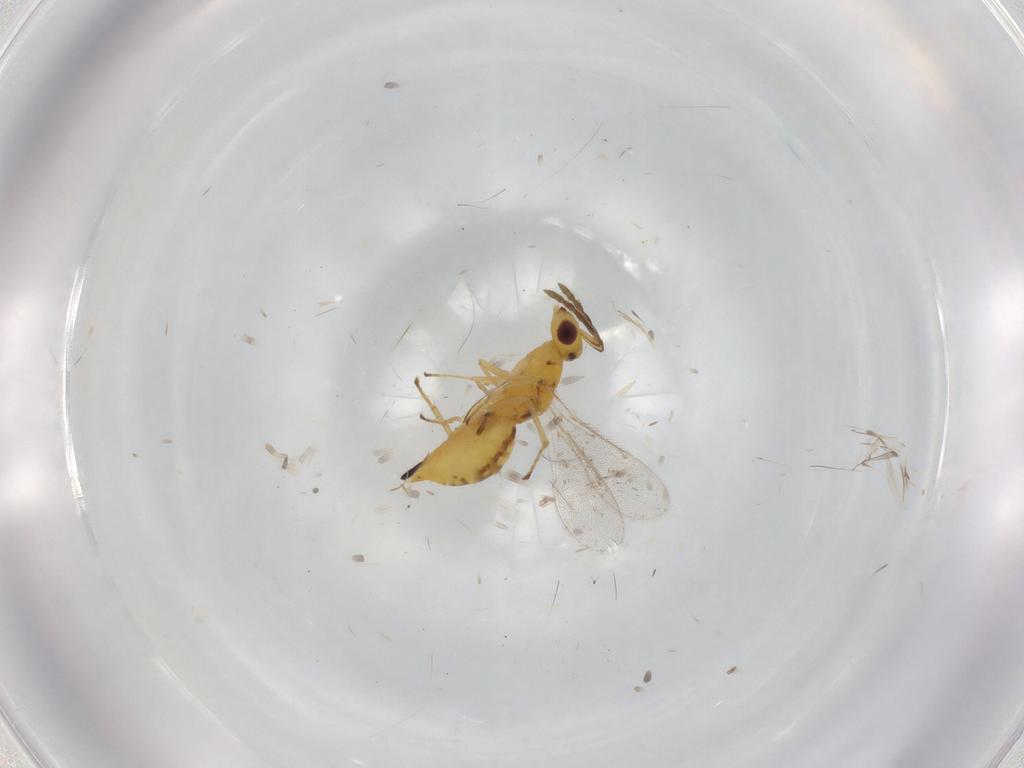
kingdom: Animalia
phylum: Arthropoda
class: Insecta
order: Hymenoptera
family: Eulophidae
